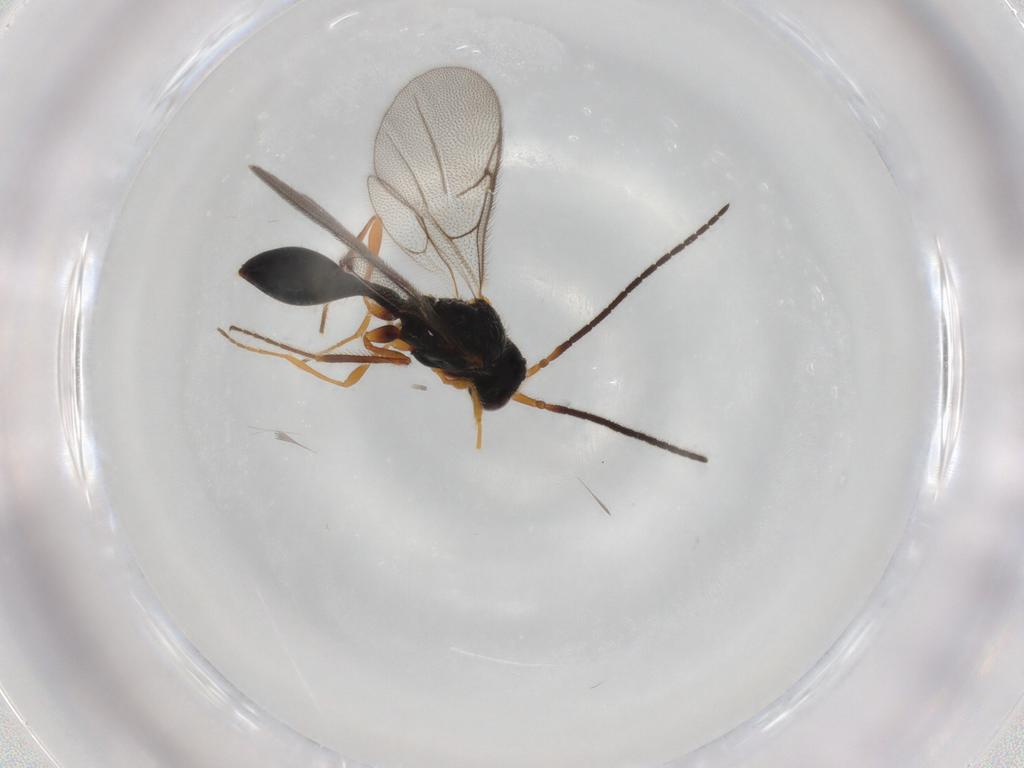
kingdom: Animalia
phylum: Arthropoda
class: Insecta
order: Hymenoptera
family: Diapriidae
